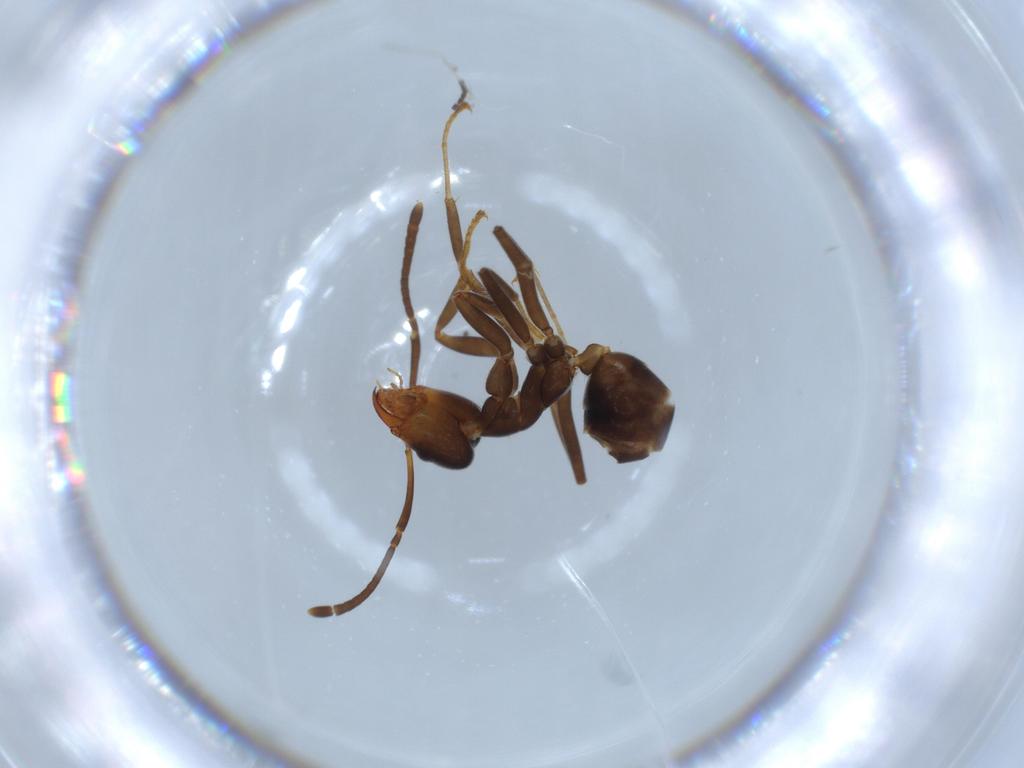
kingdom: Animalia
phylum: Arthropoda
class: Insecta
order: Hymenoptera
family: Formicidae
